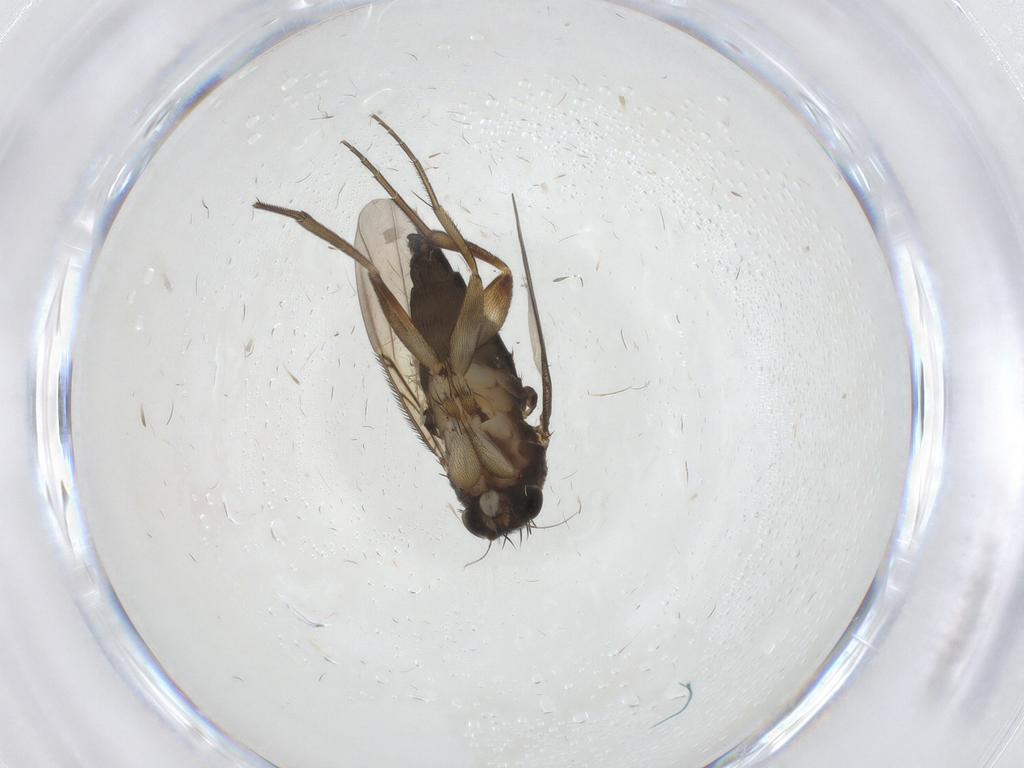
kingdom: Animalia
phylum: Arthropoda
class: Insecta
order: Diptera
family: Phoridae
